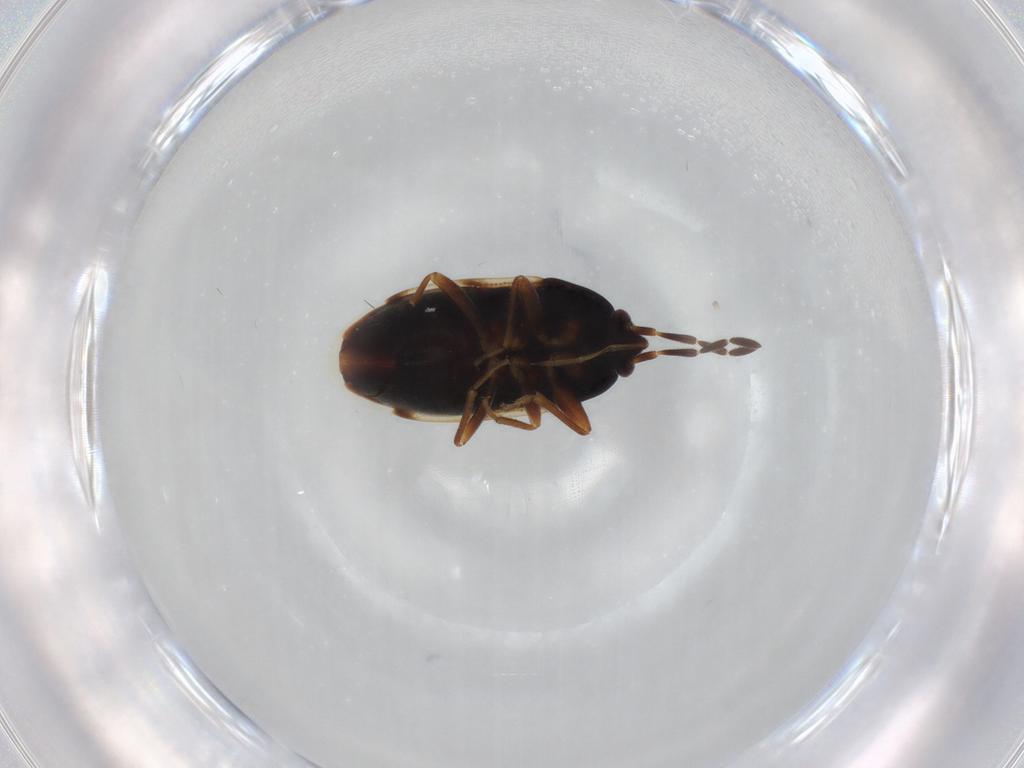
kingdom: Animalia
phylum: Arthropoda
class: Insecta
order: Hemiptera
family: Rhyparochromidae
